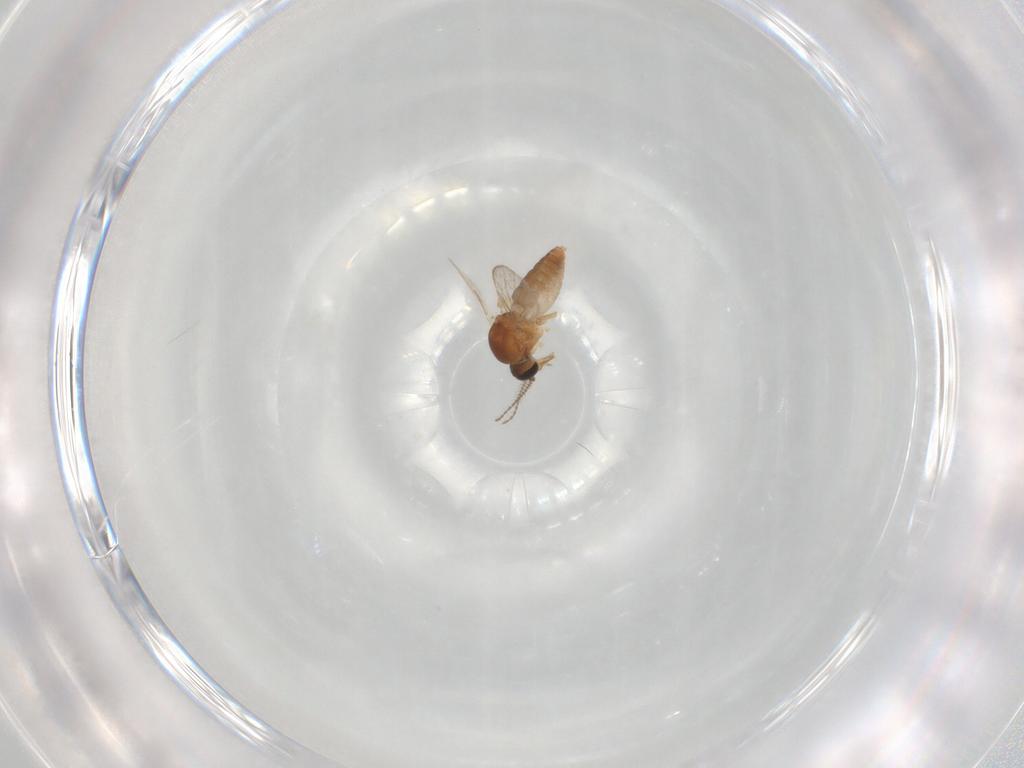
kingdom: Animalia
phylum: Arthropoda
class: Insecta
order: Diptera
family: Ceratopogonidae
